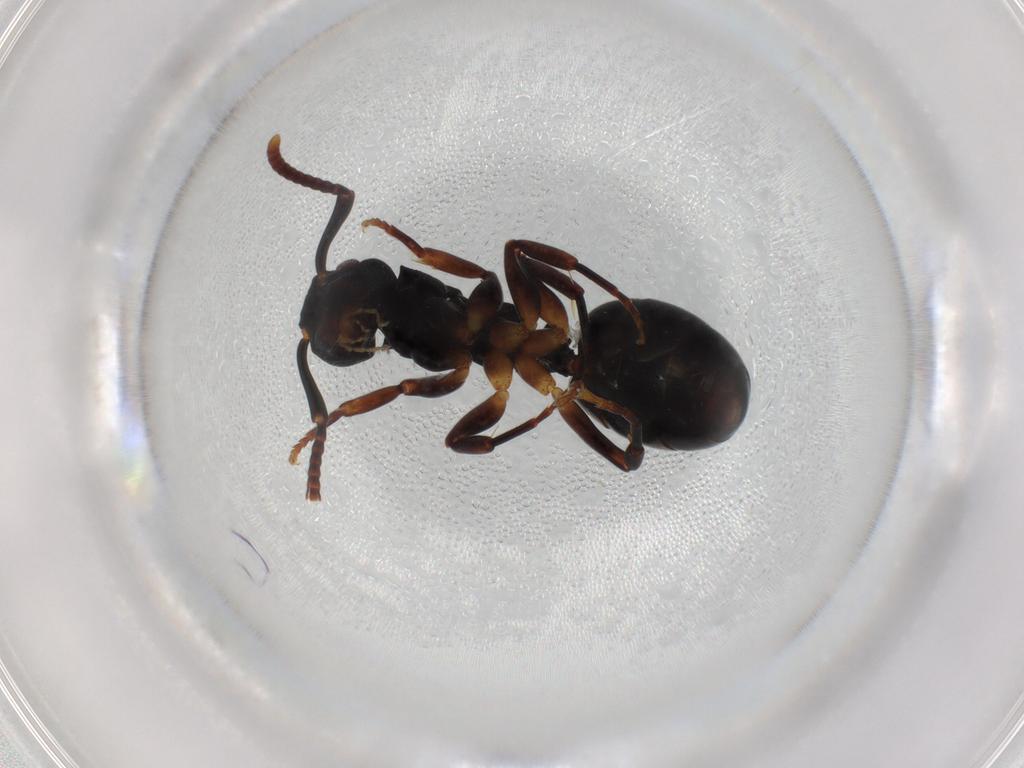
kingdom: Animalia
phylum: Arthropoda
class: Insecta
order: Hymenoptera
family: Formicidae
